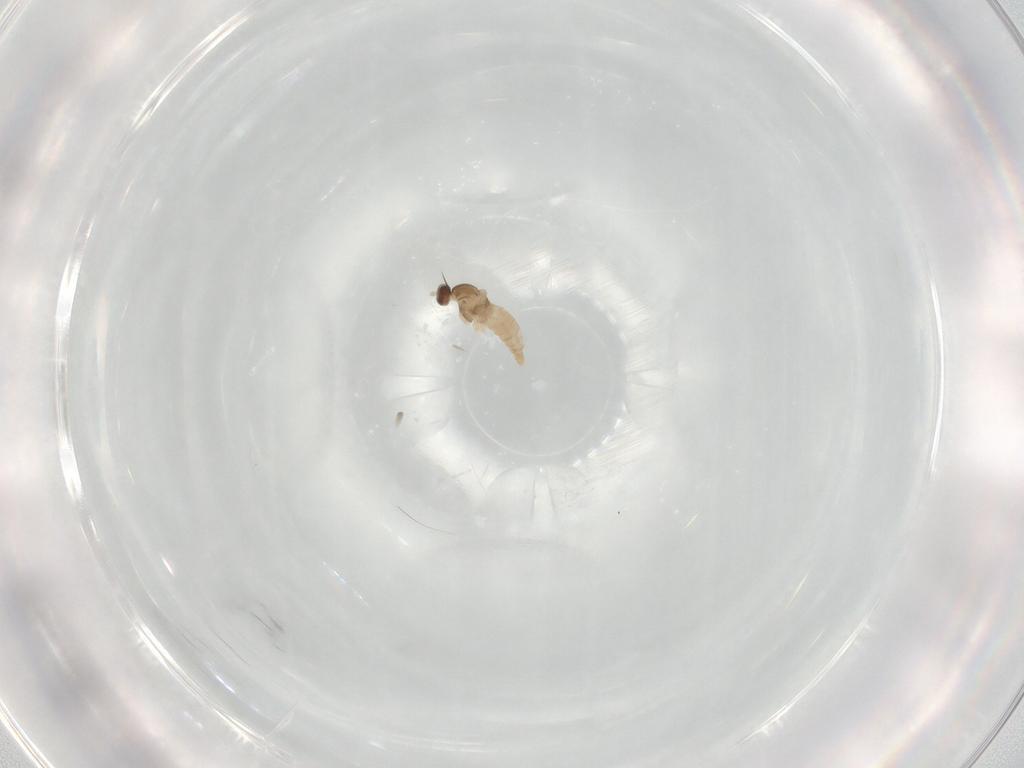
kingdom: Animalia
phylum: Arthropoda
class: Insecta
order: Diptera
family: Cecidomyiidae
